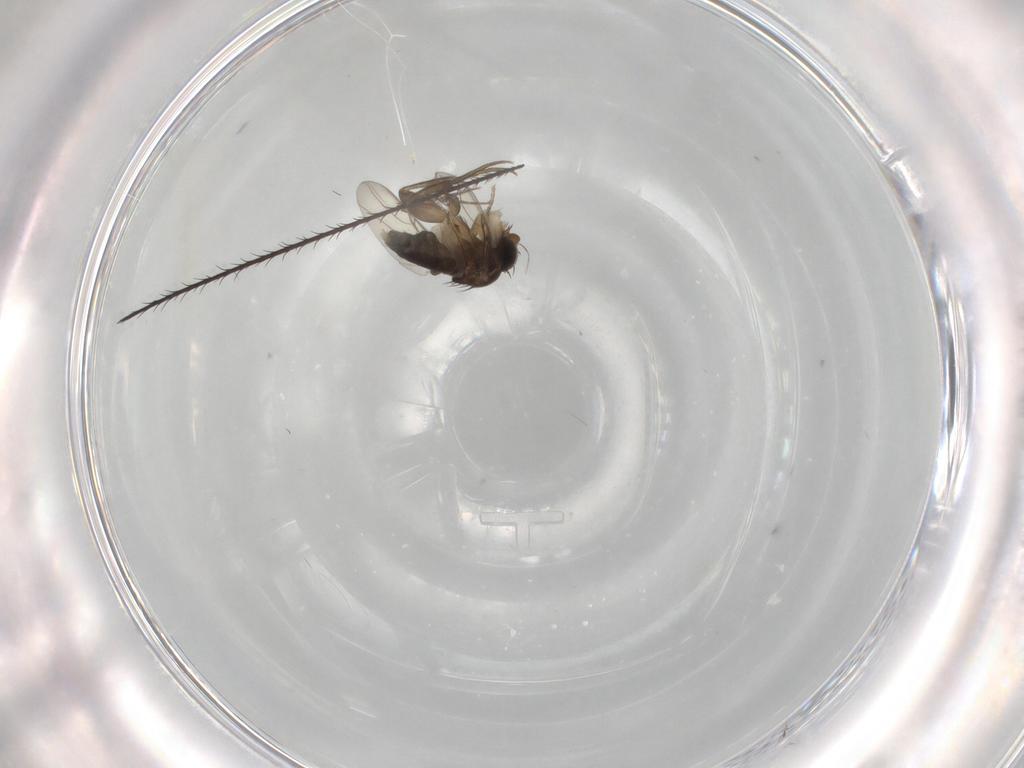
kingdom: Animalia
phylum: Arthropoda
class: Insecta
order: Diptera
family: Phoridae
